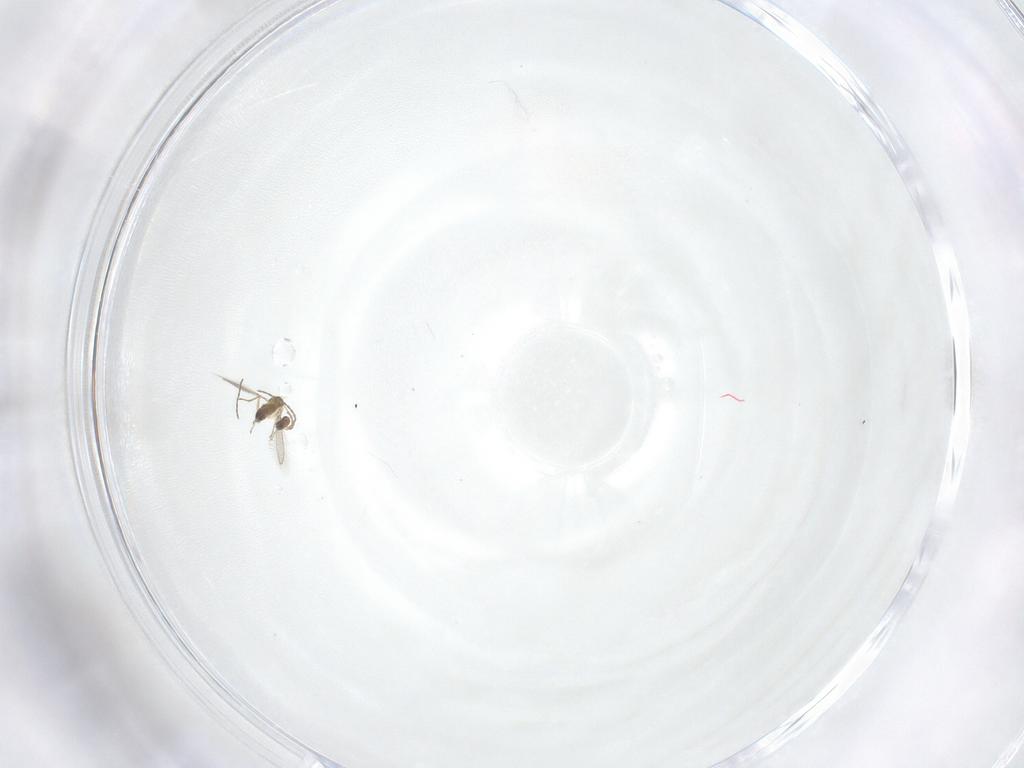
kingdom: Animalia
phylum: Arthropoda
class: Insecta
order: Hymenoptera
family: Mymaridae
